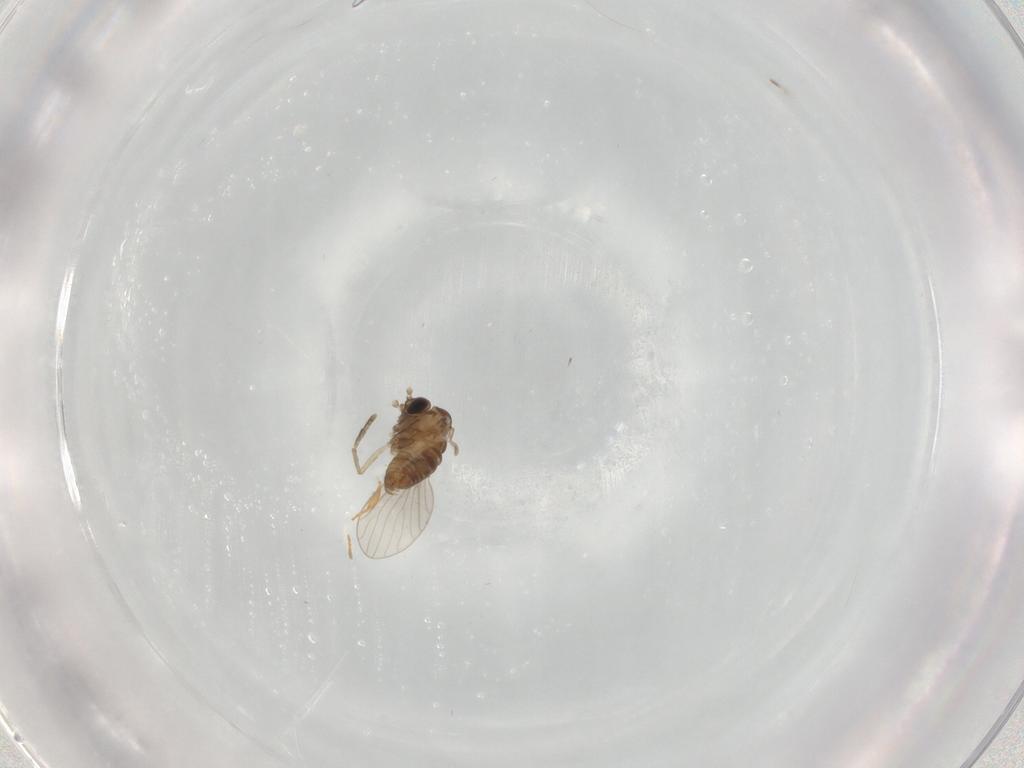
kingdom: Animalia
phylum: Arthropoda
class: Insecta
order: Diptera
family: Cecidomyiidae
